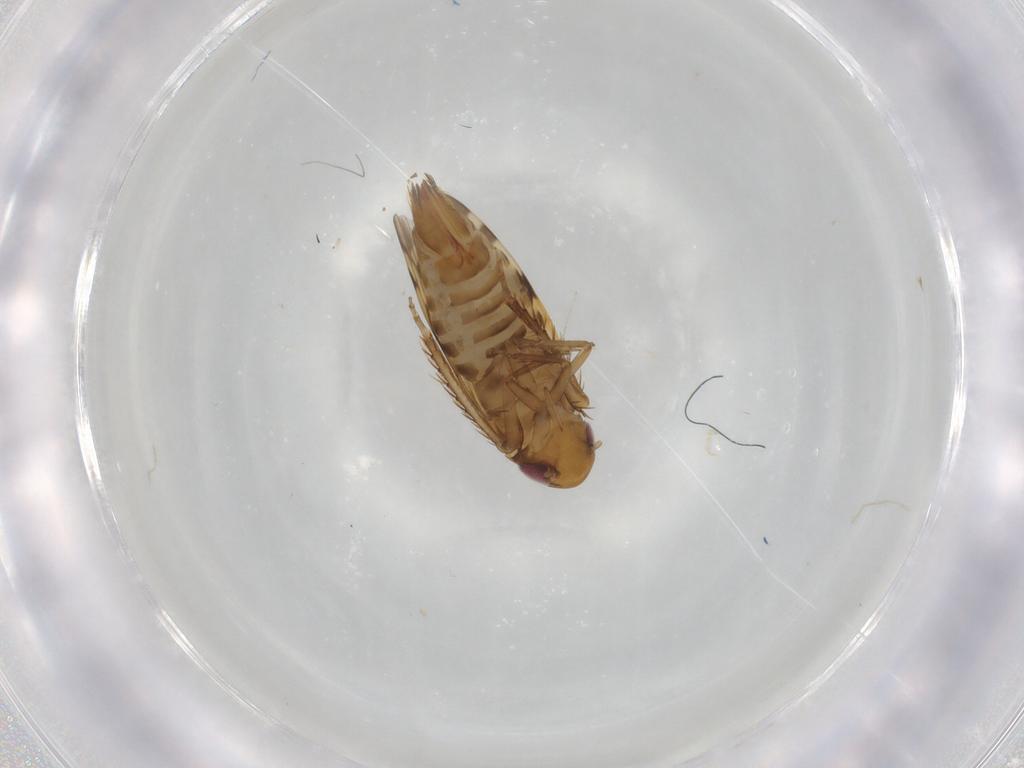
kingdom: Animalia
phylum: Arthropoda
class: Insecta
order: Hemiptera
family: Cicadellidae
